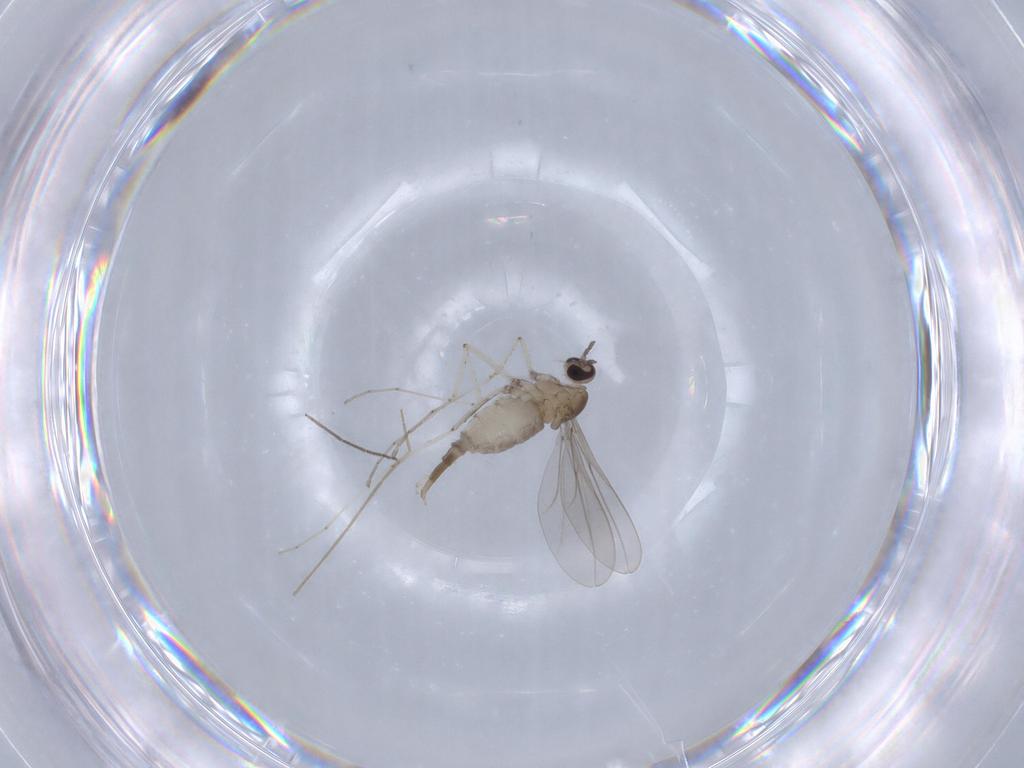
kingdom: Animalia
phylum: Arthropoda
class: Insecta
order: Diptera
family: Cecidomyiidae
